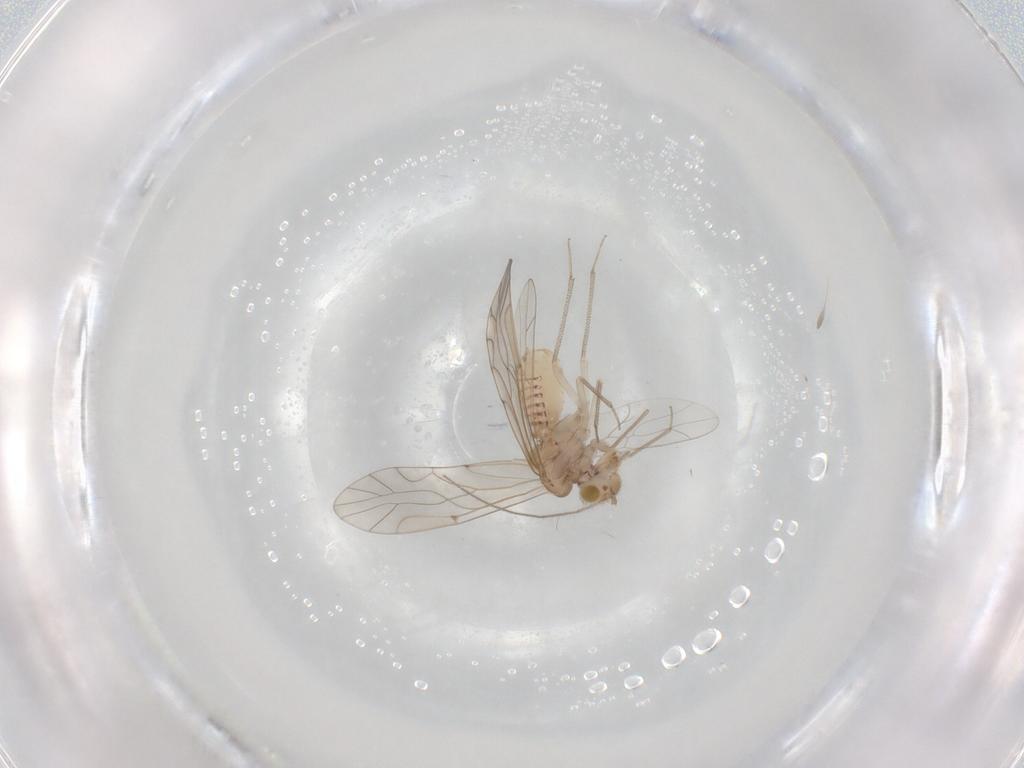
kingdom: Animalia
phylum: Arthropoda
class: Insecta
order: Psocodea
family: Lachesillidae
